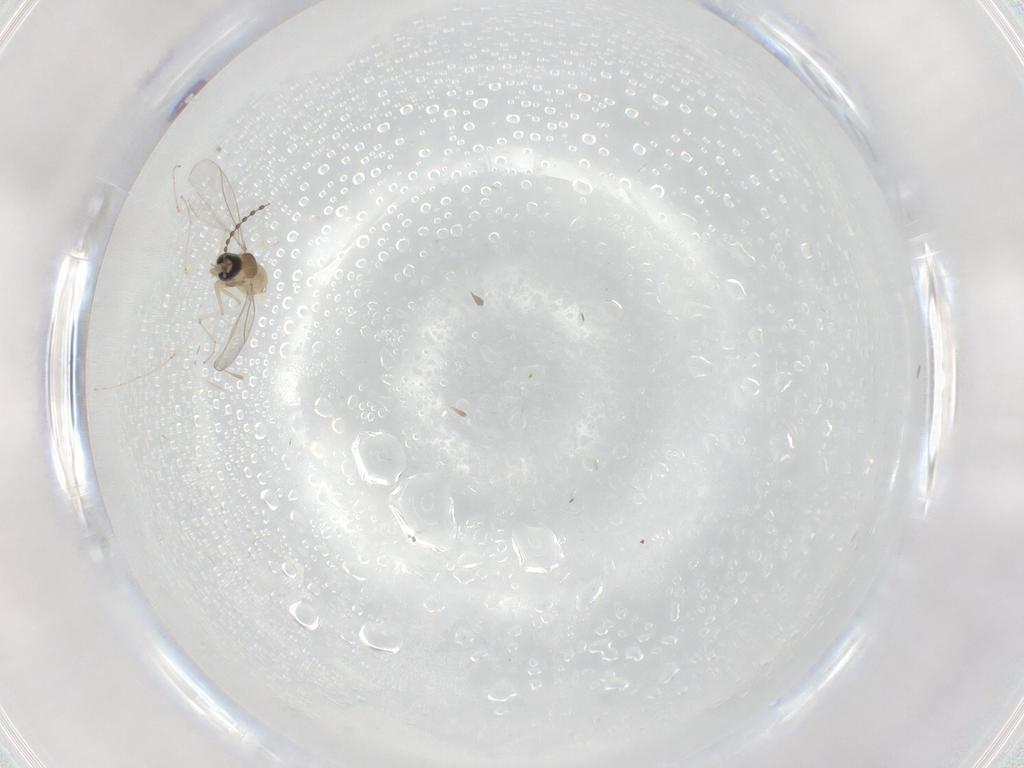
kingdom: Animalia
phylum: Arthropoda
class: Insecta
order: Diptera
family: Cecidomyiidae
